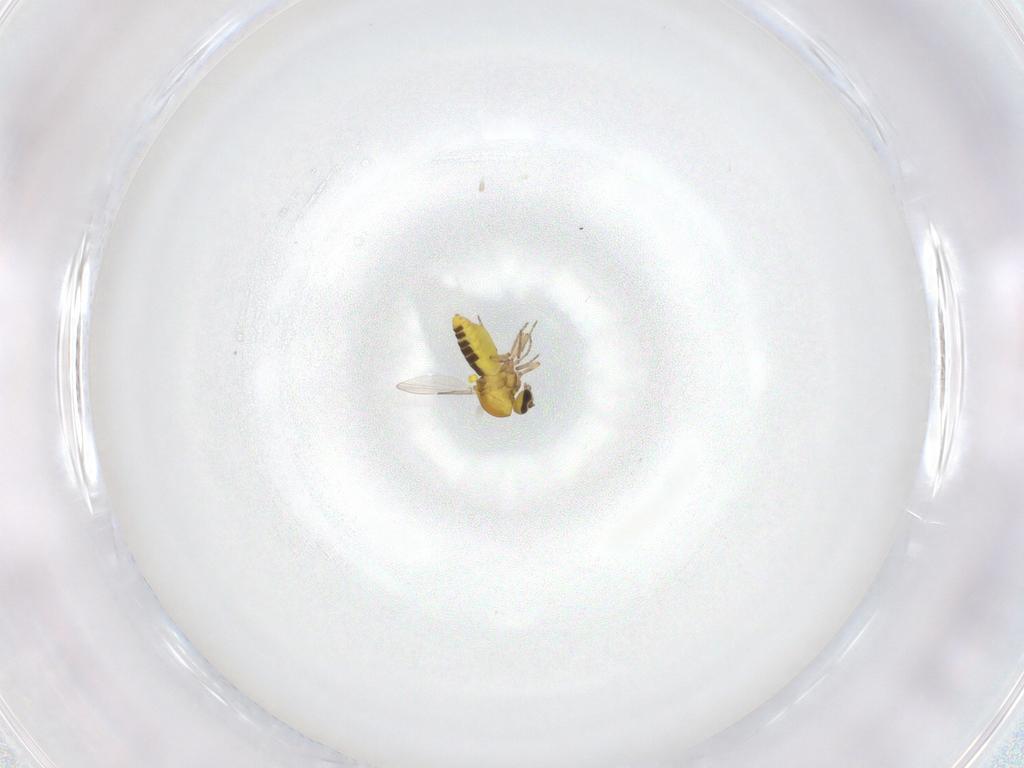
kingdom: Animalia
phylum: Arthropoda
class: Insecta
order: Diptera
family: Ceratopogonidae
